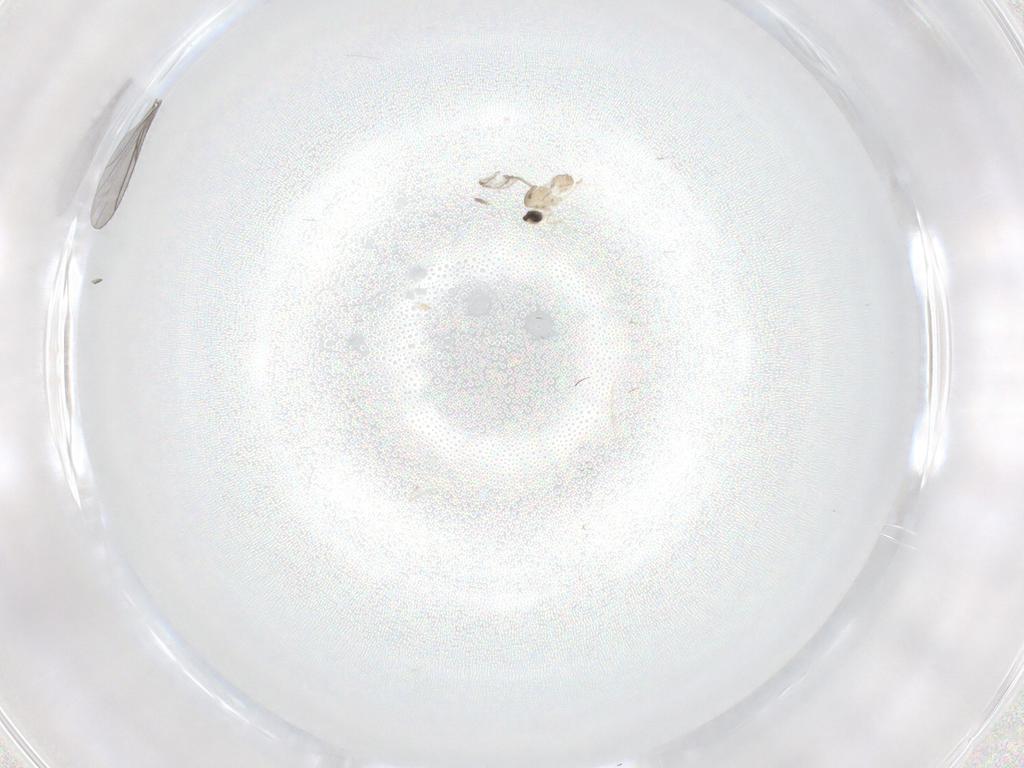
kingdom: Animalia
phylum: Arthropoda
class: Insecta
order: Diptera
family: Cecidomyiidae
